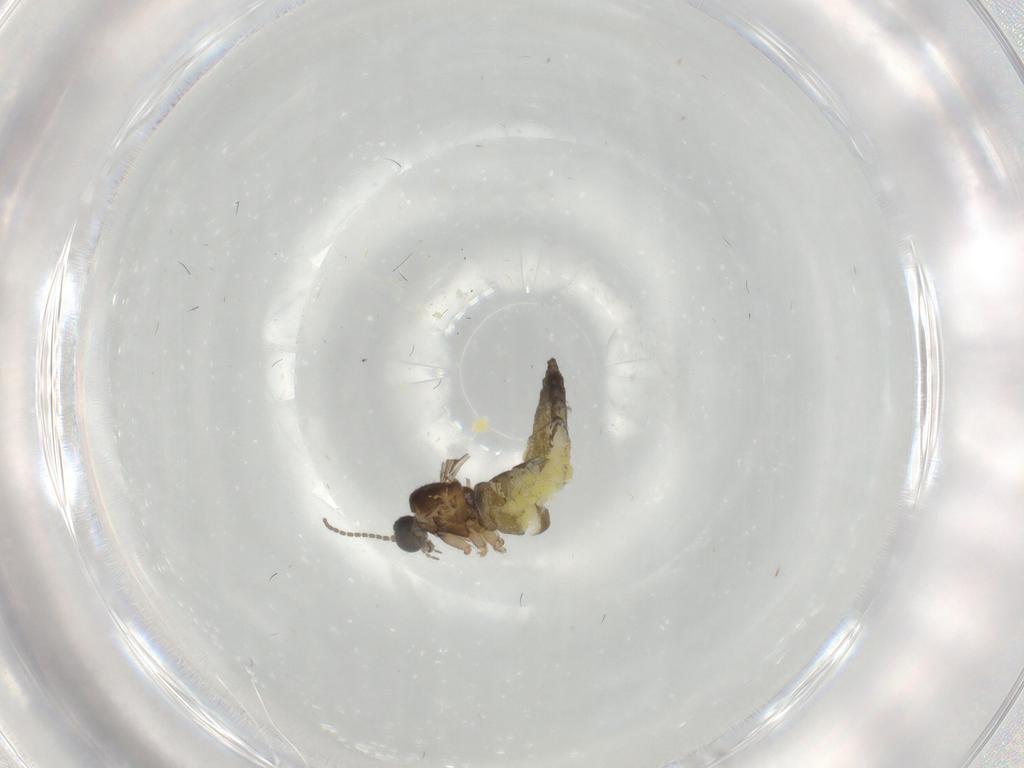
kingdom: Animalia
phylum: Arthropoda
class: Insecta
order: Diptera
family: Sciaridae
